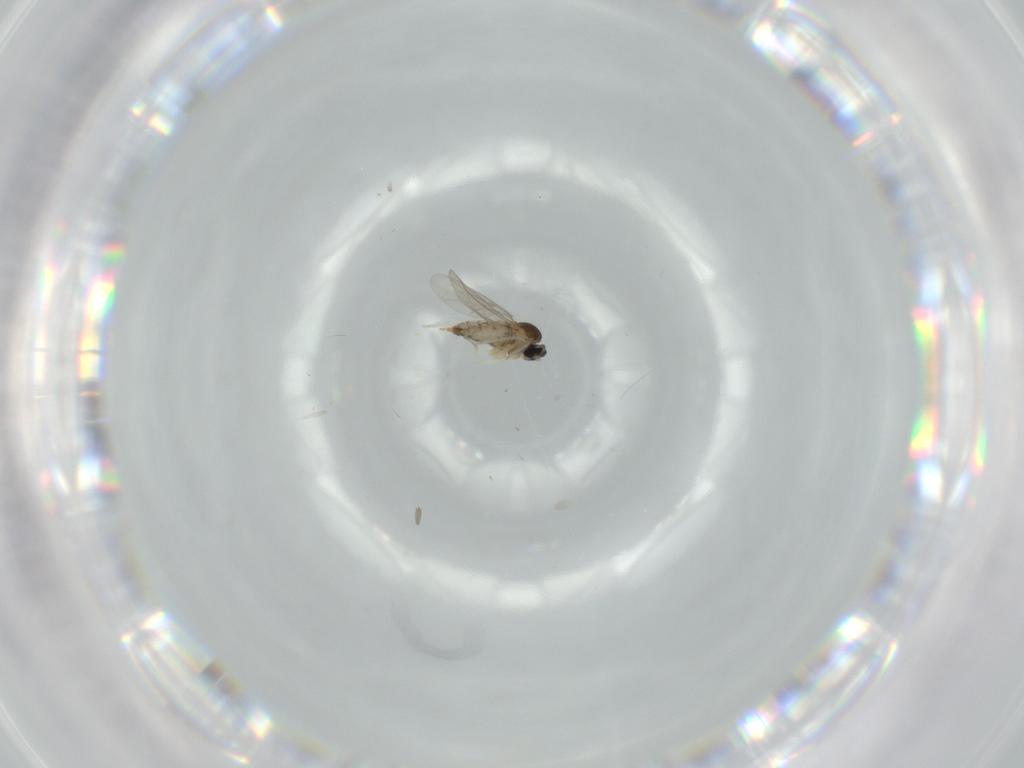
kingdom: Animalia
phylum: Arthropoda
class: Insecta
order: Diptera
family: Cecidomyiidae
